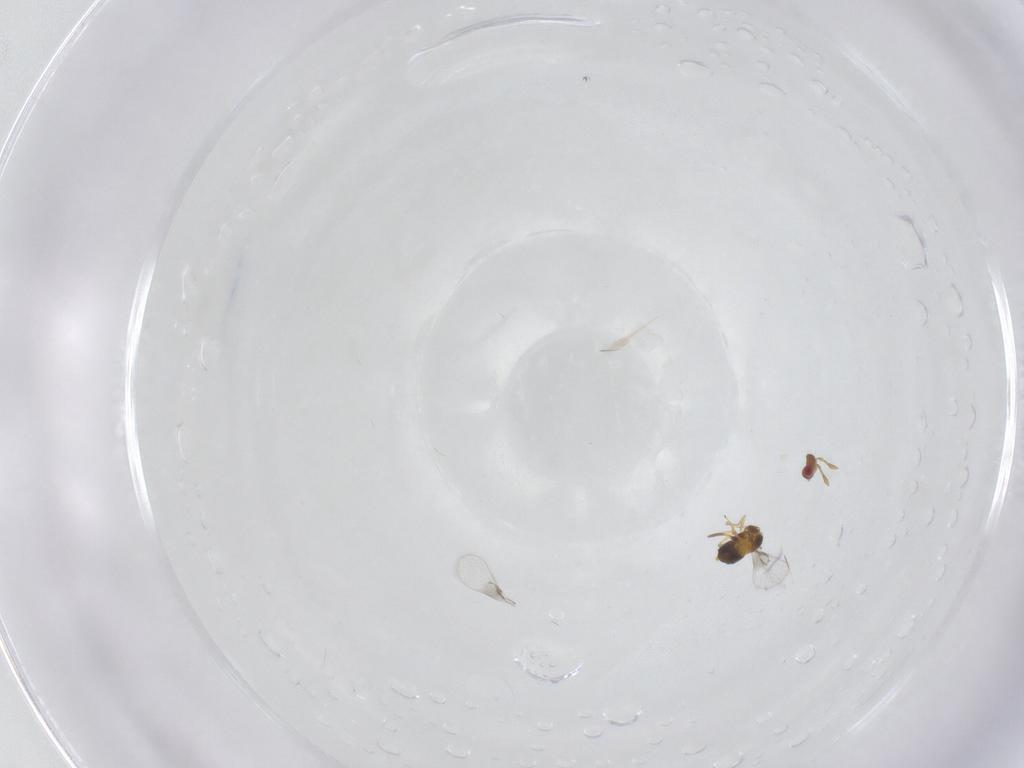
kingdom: Animalia
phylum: Arthropoda
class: Insecta
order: Hymenoptera
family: Trichogrammatidae
